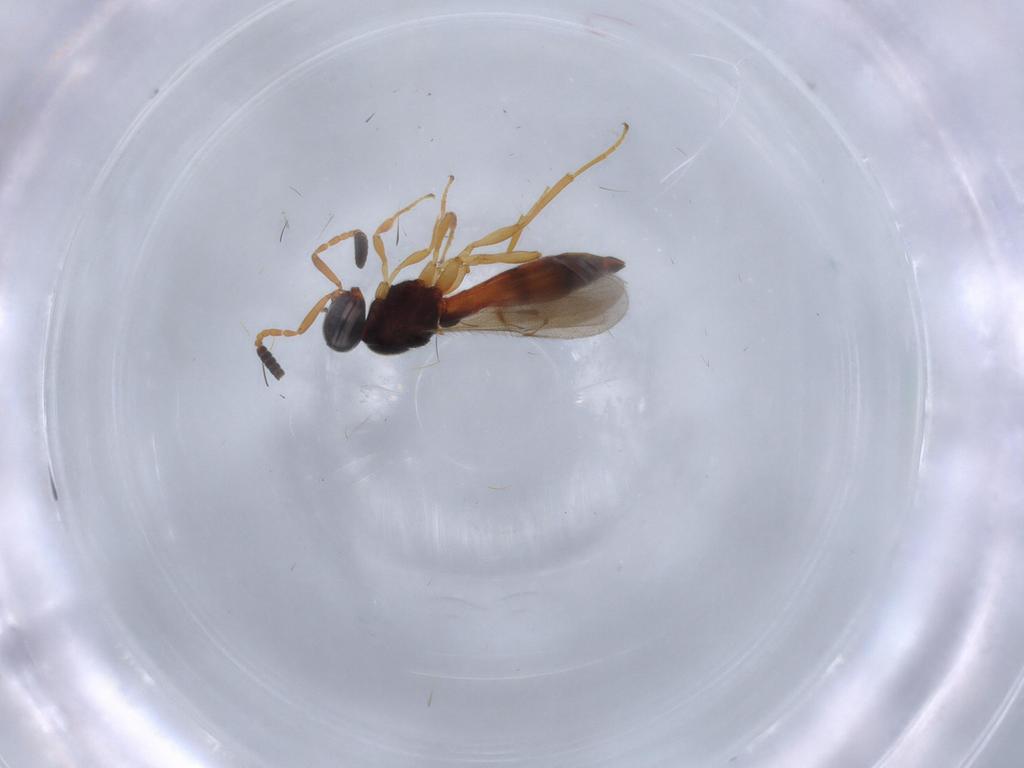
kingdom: Animalia
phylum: Arthropoda
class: Insecta
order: Hymenoptera
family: Scelionidae
